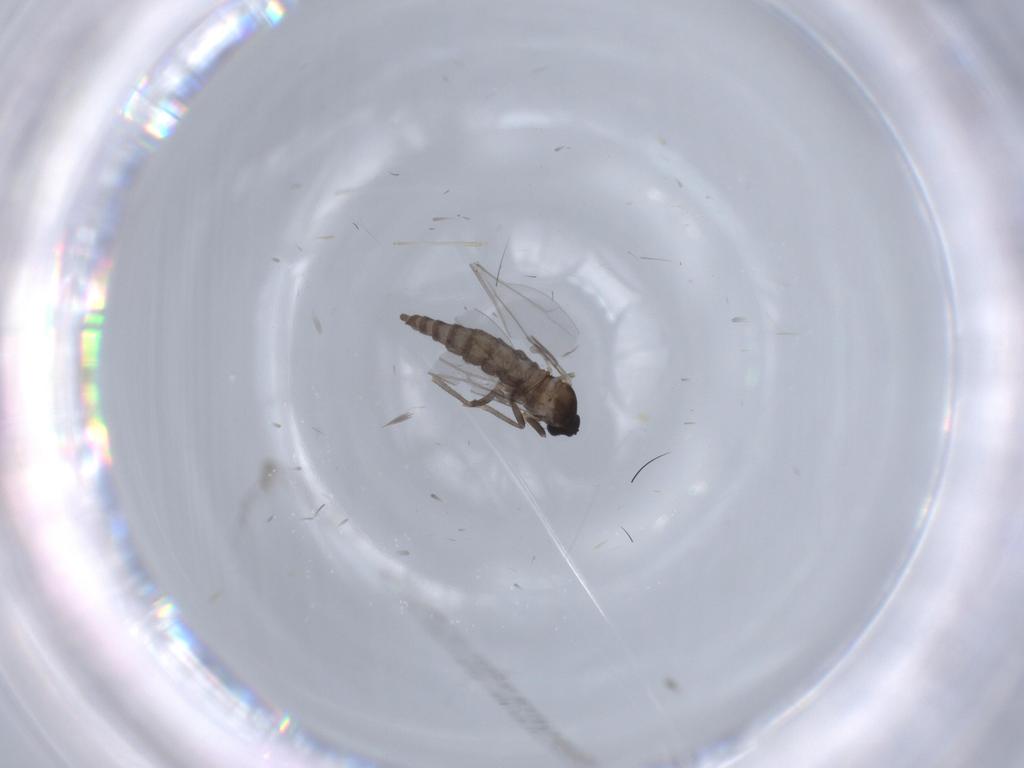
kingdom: Animalia
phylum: Arthropoda
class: Insecta
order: Diptera
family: Cecidomyiidae
